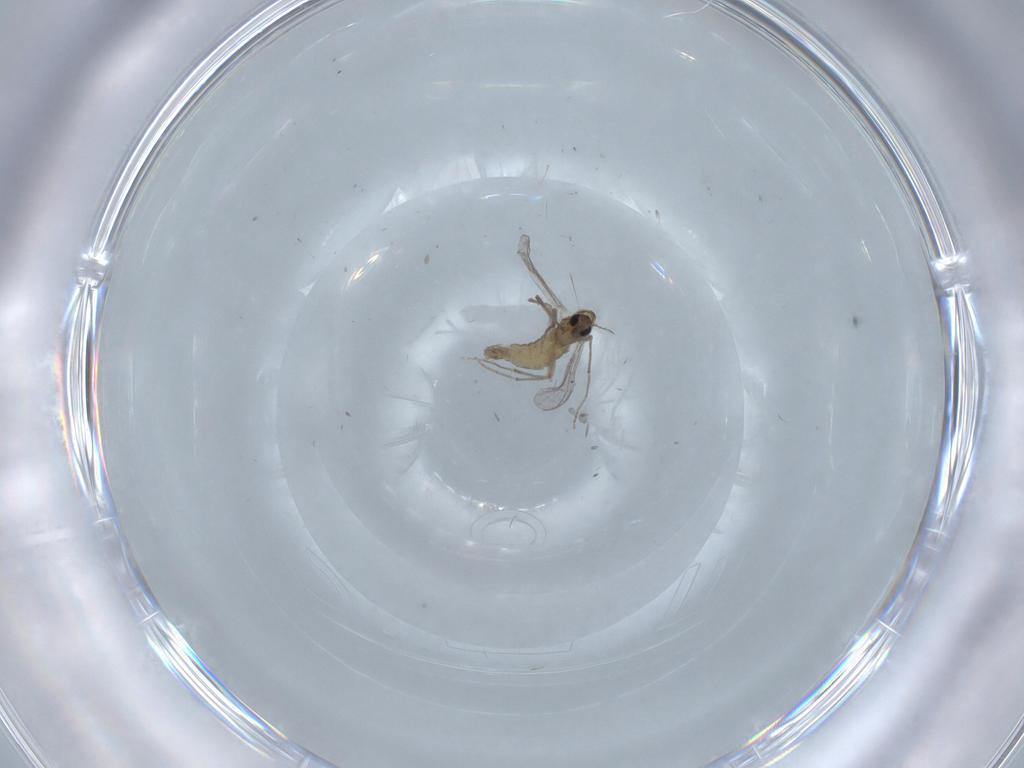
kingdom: Animalia
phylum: Arthropoda
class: Insecta
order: Diptera
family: Chironomidae
